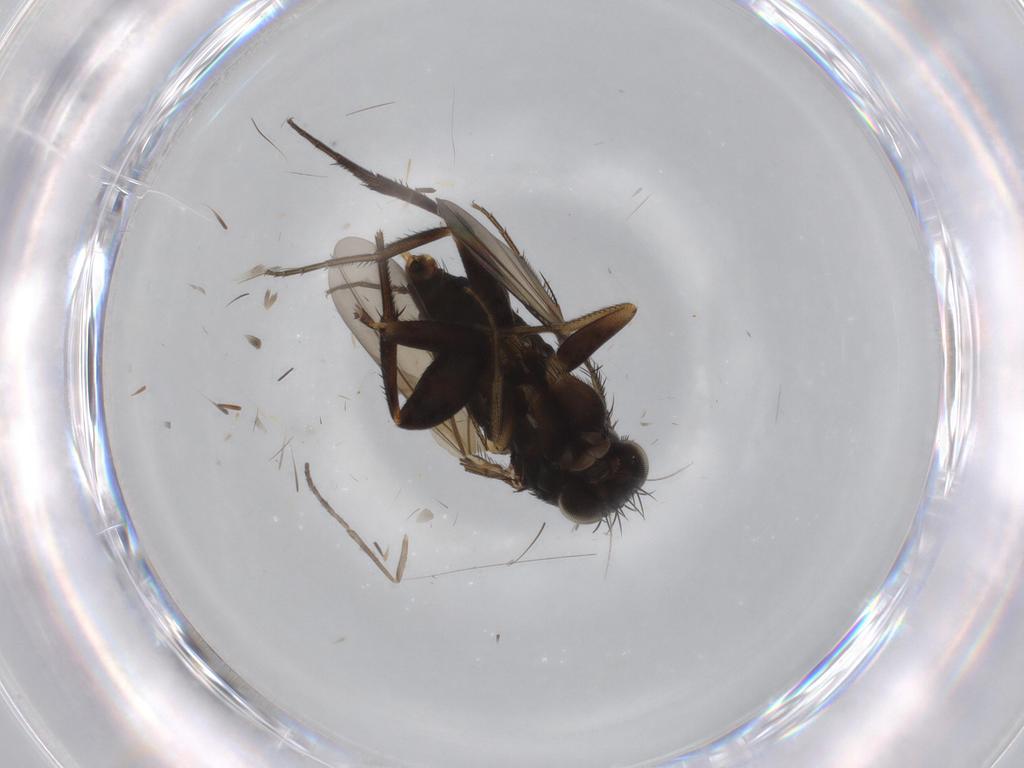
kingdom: Animalia
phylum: Arthropoda
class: Insecta
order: Diptera
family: Phoridae
